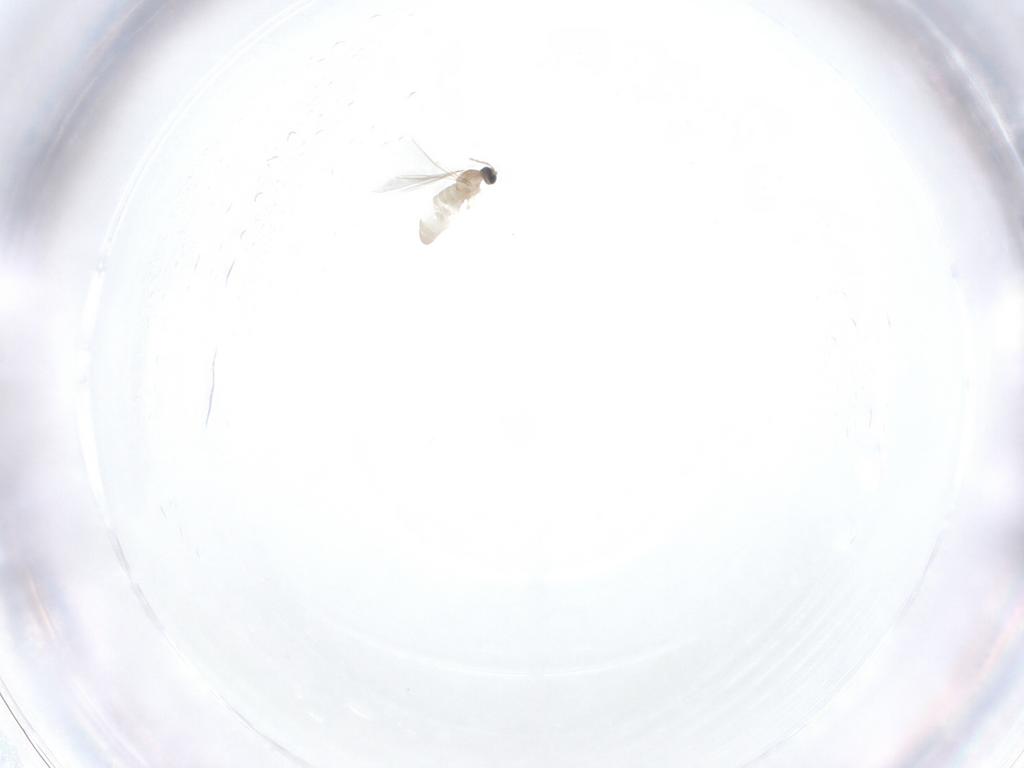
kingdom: Animalia
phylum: Arthropoda
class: Insecta
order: Diptera
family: Cecidomyiidae
